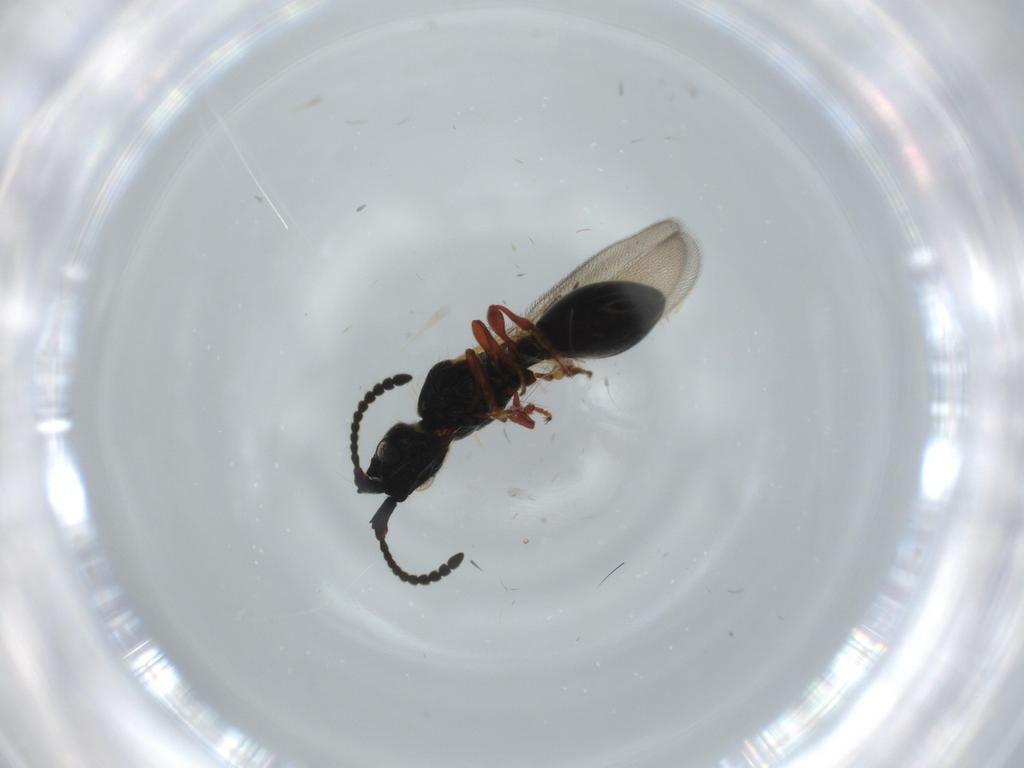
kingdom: Animalia
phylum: Arthropoda
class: Insecta
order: Hymenoptera
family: Diapriidae
